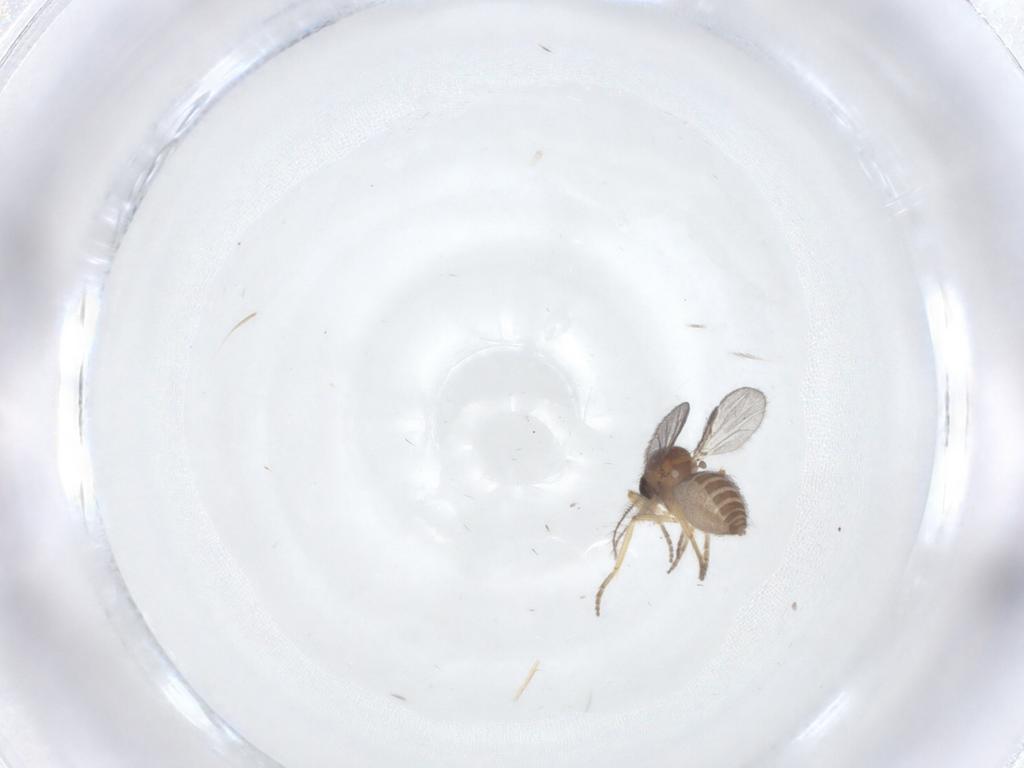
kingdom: Animalia
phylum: Arthropoda
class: Insecta
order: Diptera
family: Ceratopogonidae
